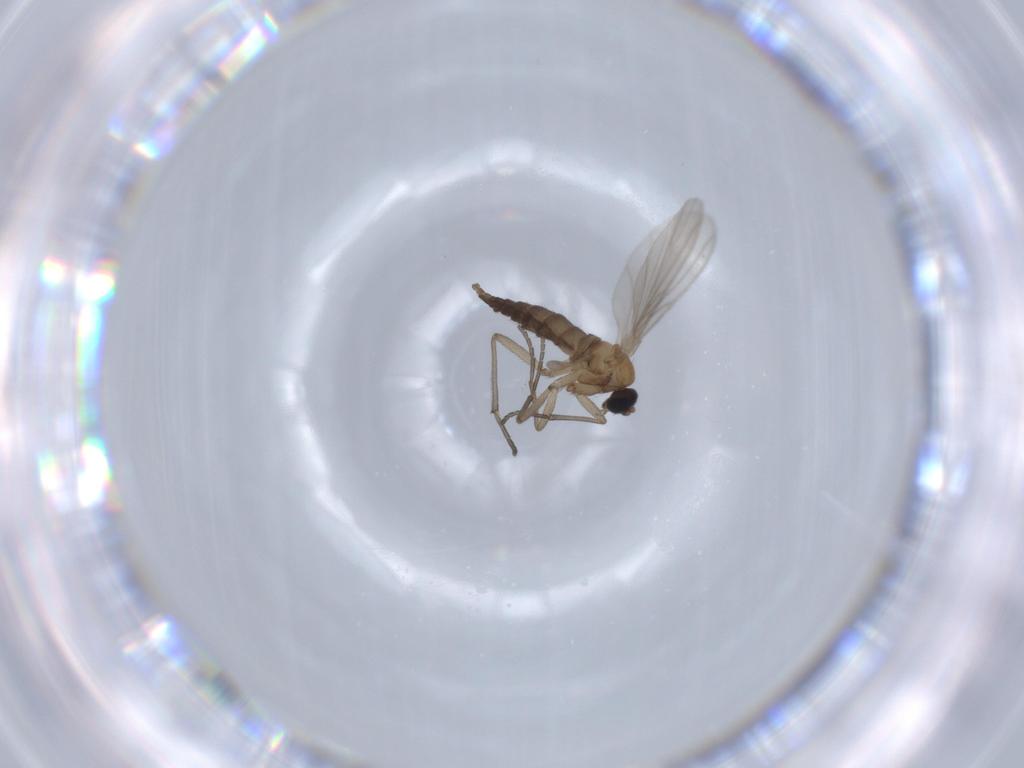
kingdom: Animalia
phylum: Arthropoda
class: Insecta
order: Diptera
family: Sciaridae
